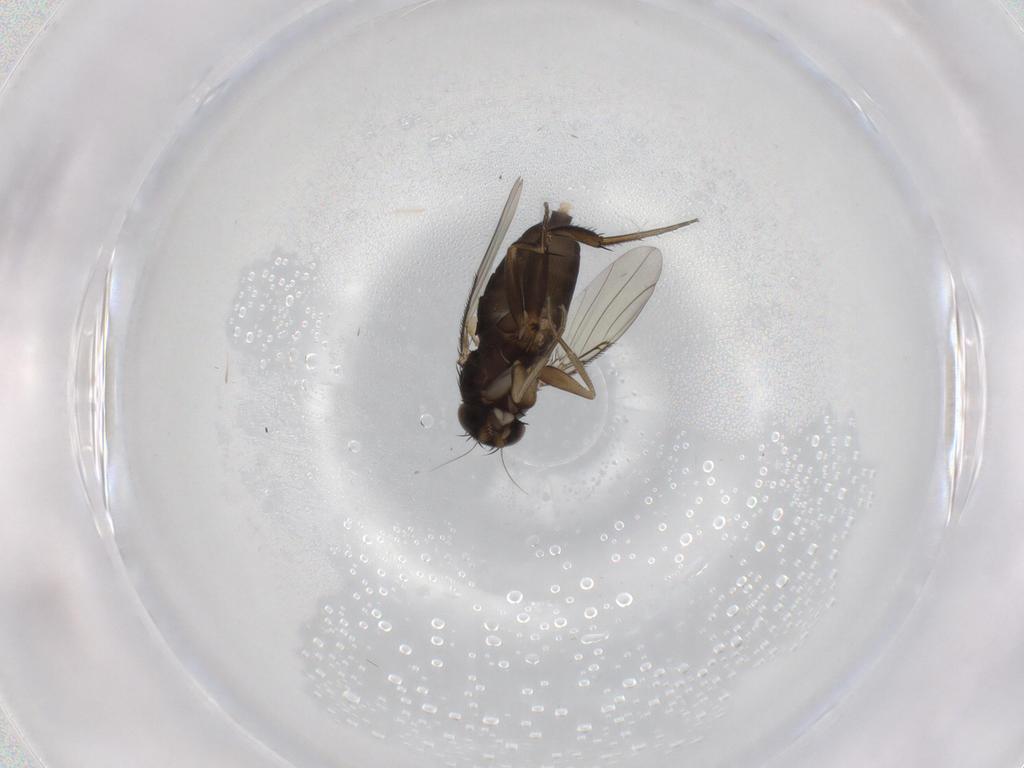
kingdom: Animalia
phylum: Arthropoda
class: Insecta
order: Diptera
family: Phoridae
